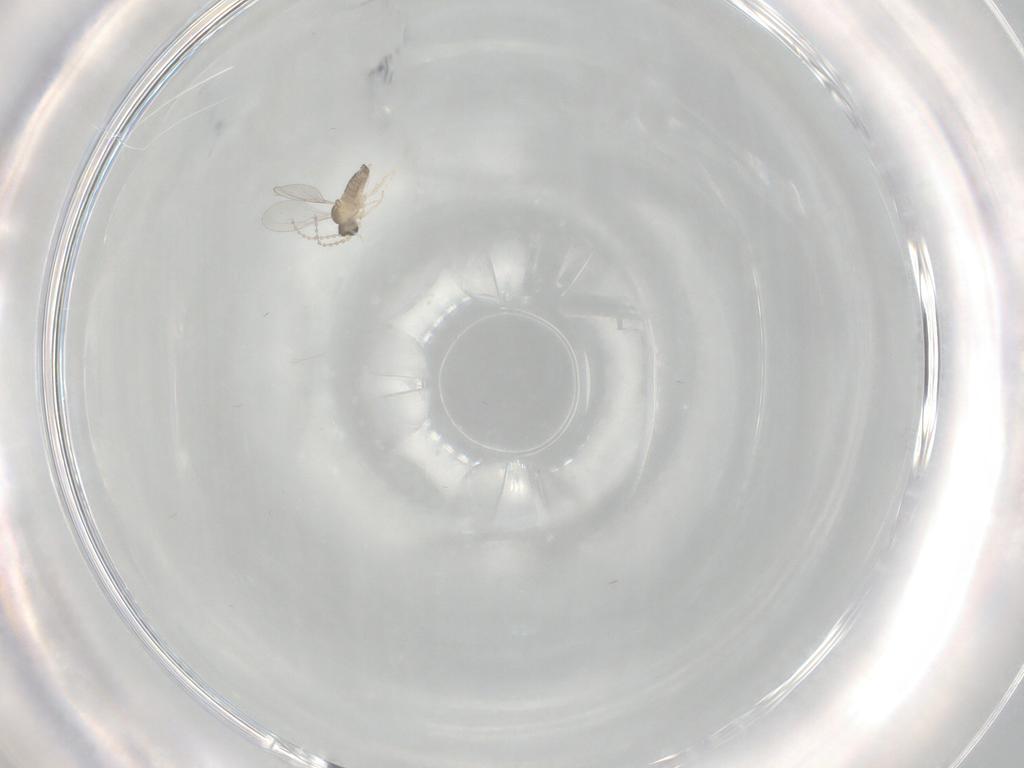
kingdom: Animalia
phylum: Arthropoda
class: Insecta
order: Diptera
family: Cecidomyiidae
